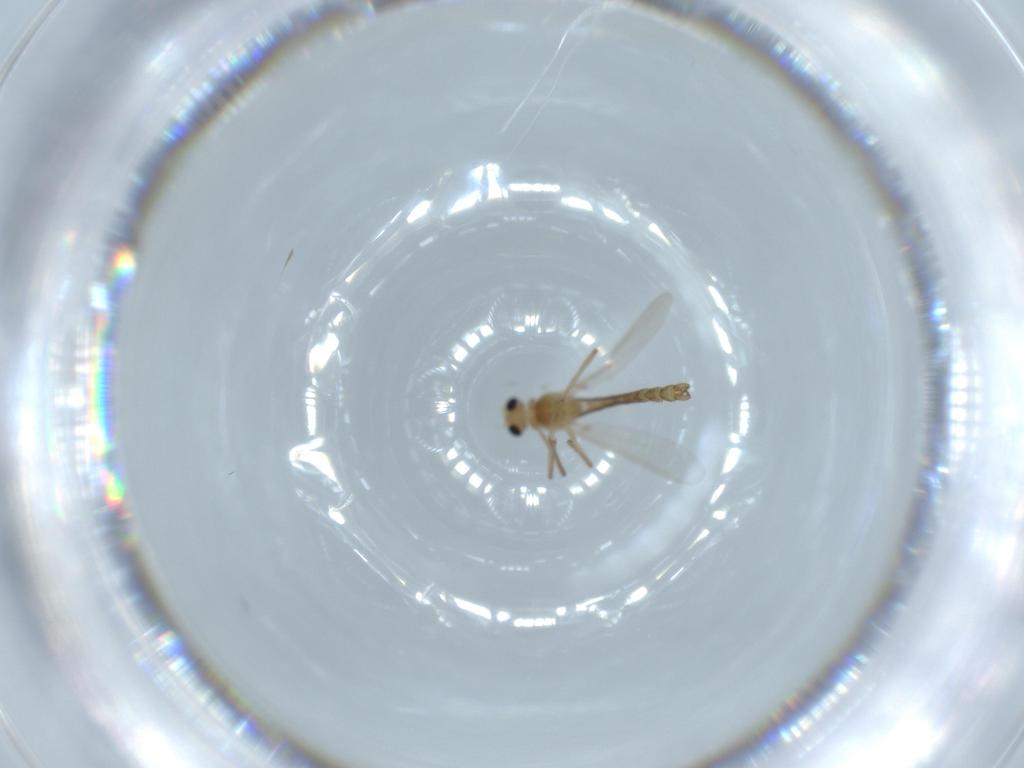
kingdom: Animalia
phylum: Arthropoda
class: Insecta
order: Diptera
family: Chironomidae
